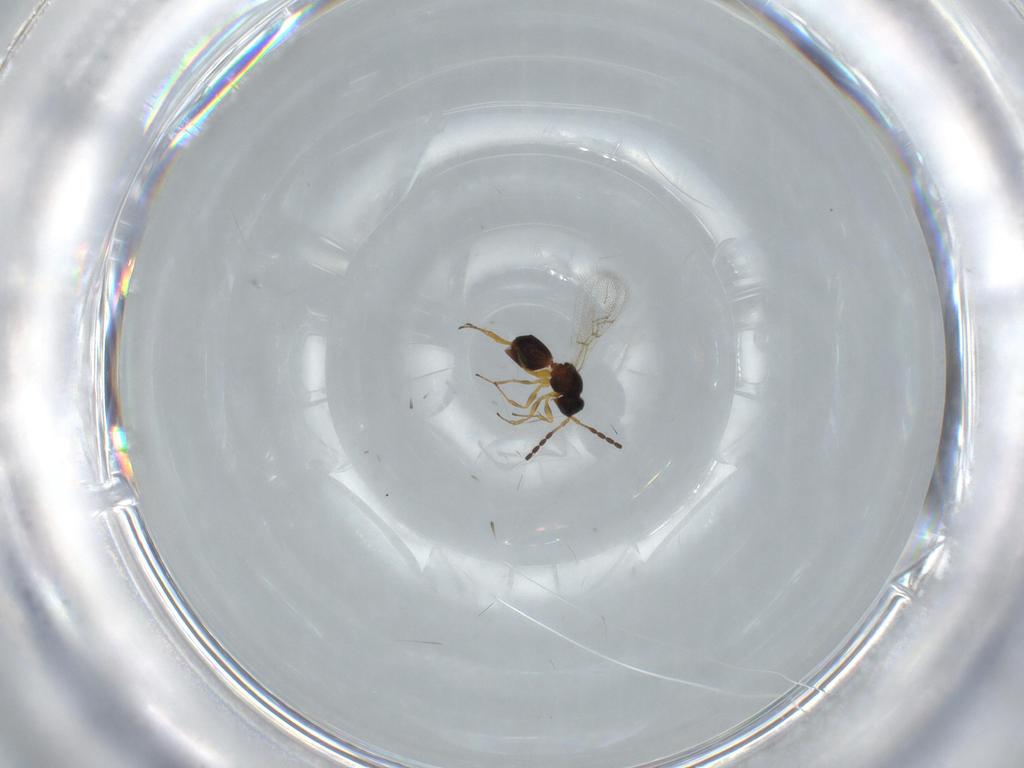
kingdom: Animalia
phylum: Arthropoda
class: Insecta
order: Hymenoptera
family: Figitidae
